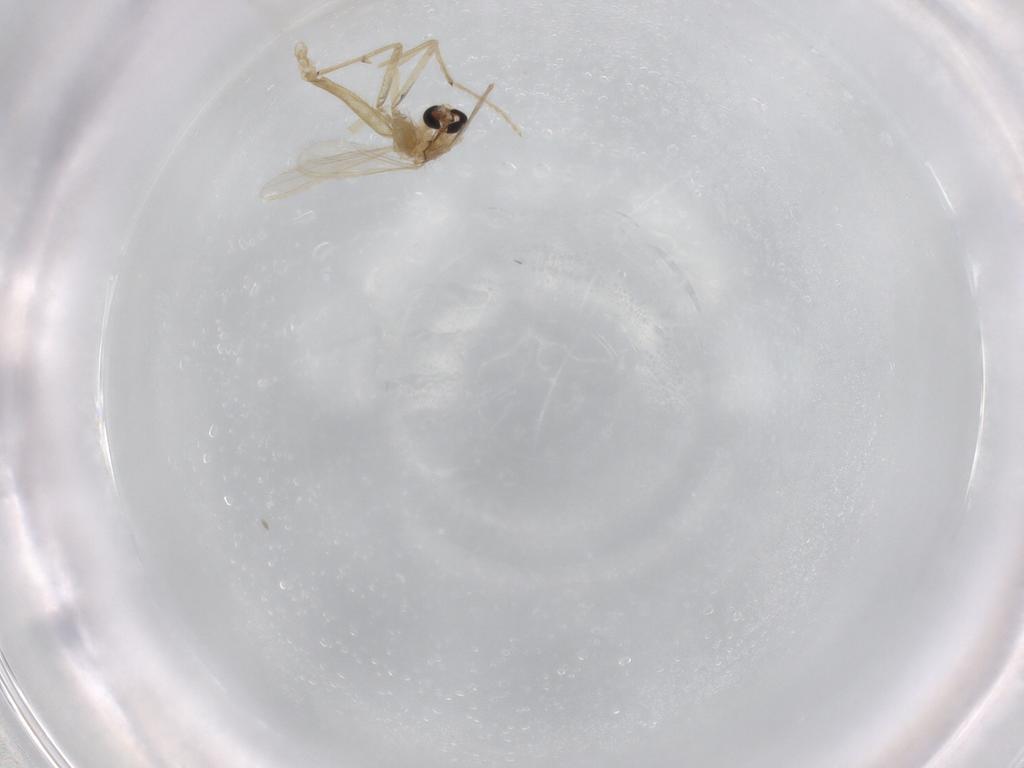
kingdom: Animalia
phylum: Arthropoda
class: Insecta
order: Diptera
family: Chironomidae
